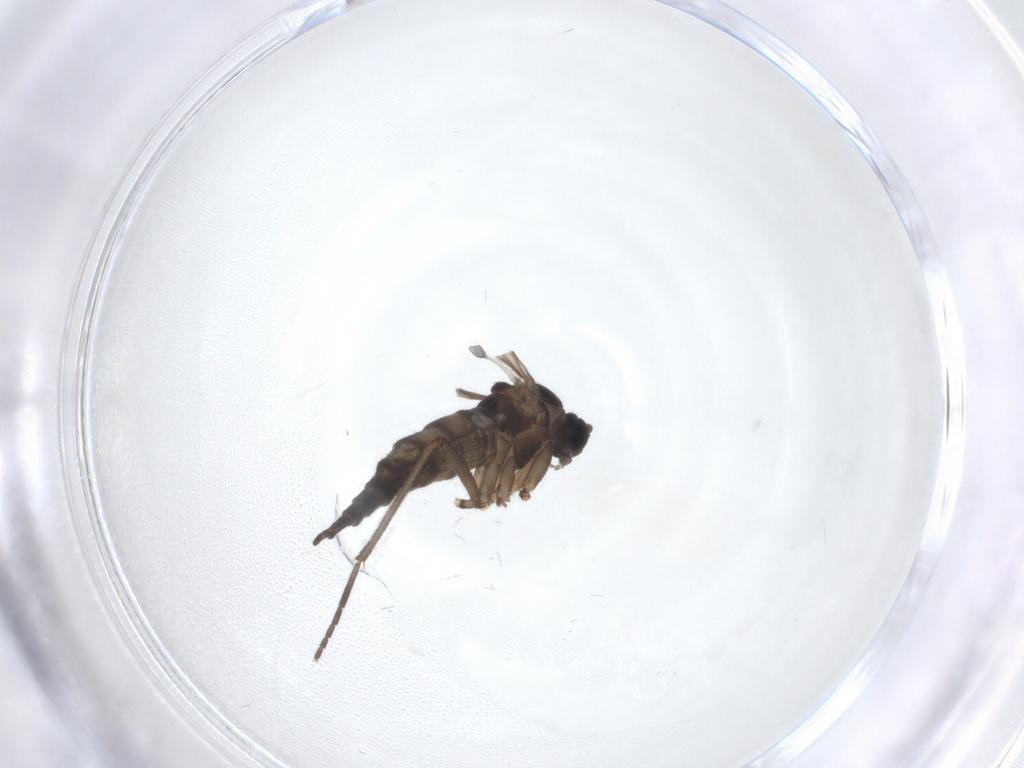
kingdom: Animalia
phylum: Arthropoda
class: Insecta
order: Diptera
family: Sciaridae
